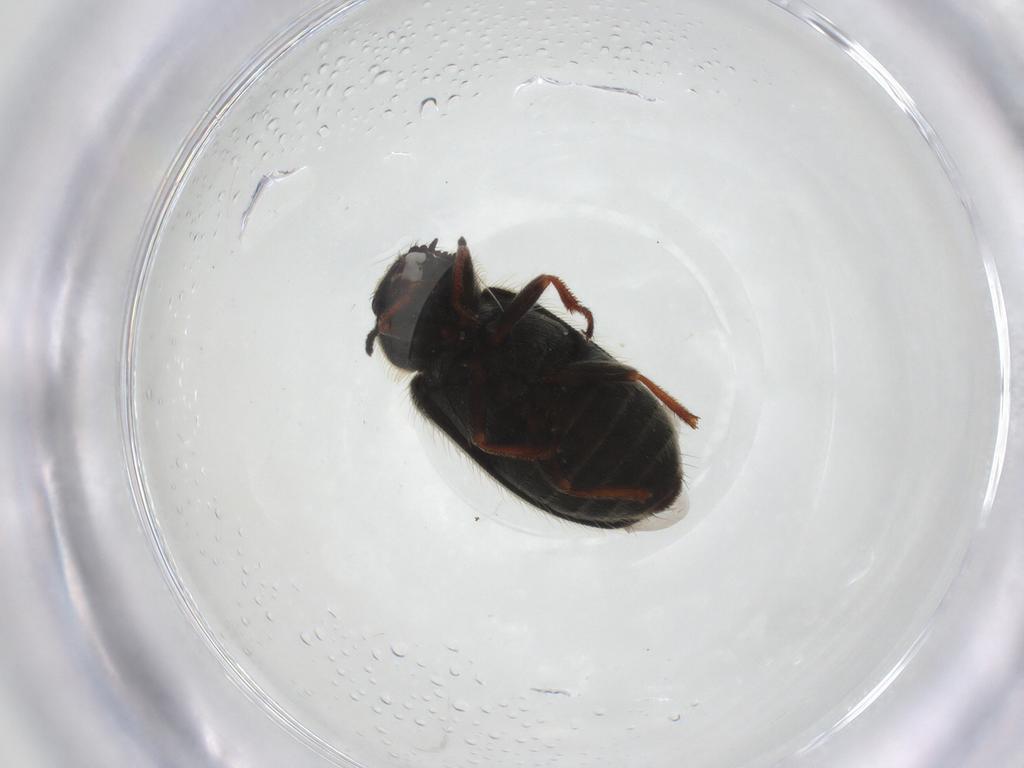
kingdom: Animalia
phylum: Arthropoda
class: Insecta
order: Coleoptera
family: Melyridae
